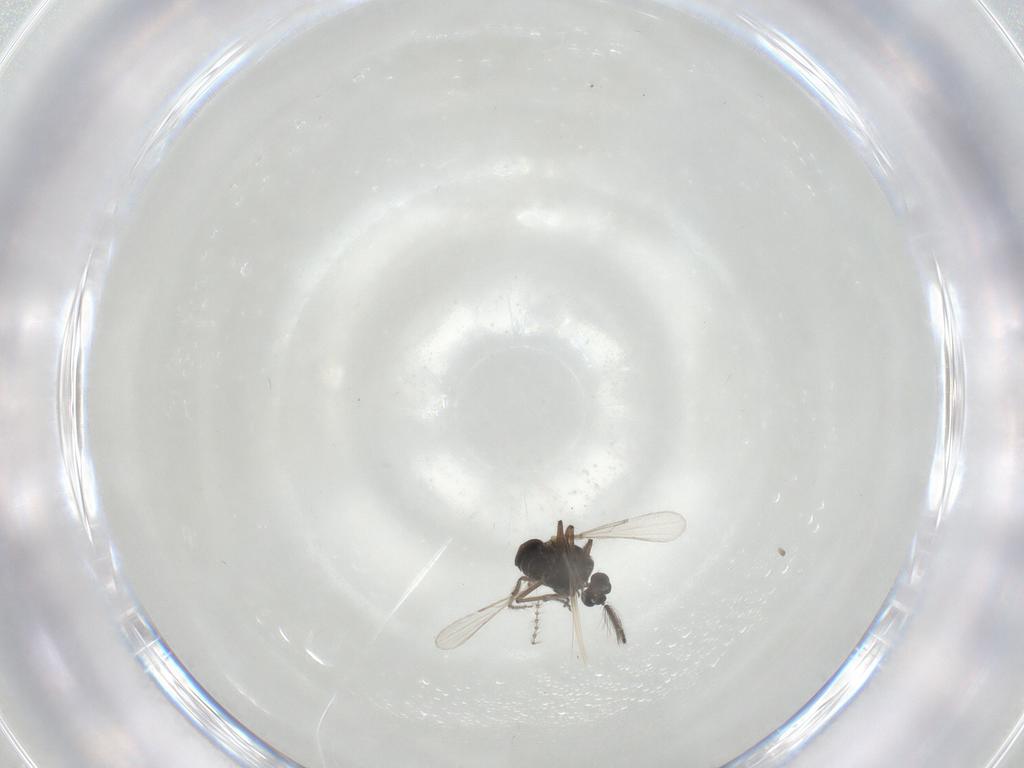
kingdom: Animalia
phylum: Arthropoda
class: Insecta
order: Diptera
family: Ceratopogonidae
